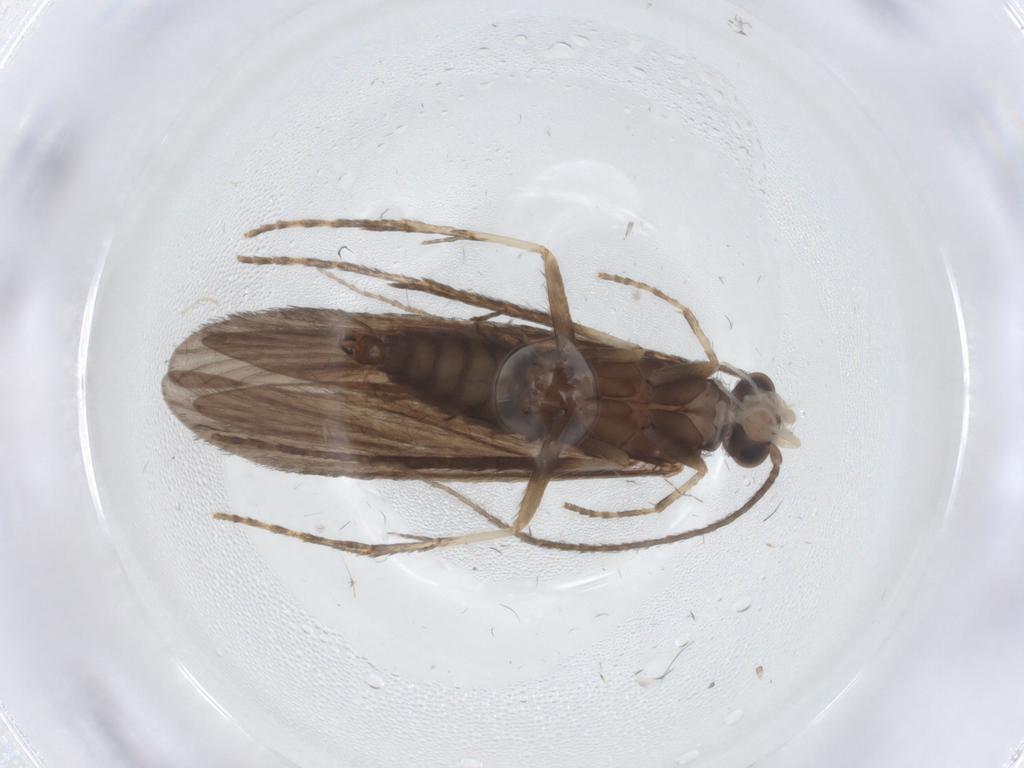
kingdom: Animalia
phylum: Arthropoda
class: Insecta
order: Trichoptera
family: Xiphocentronidae
